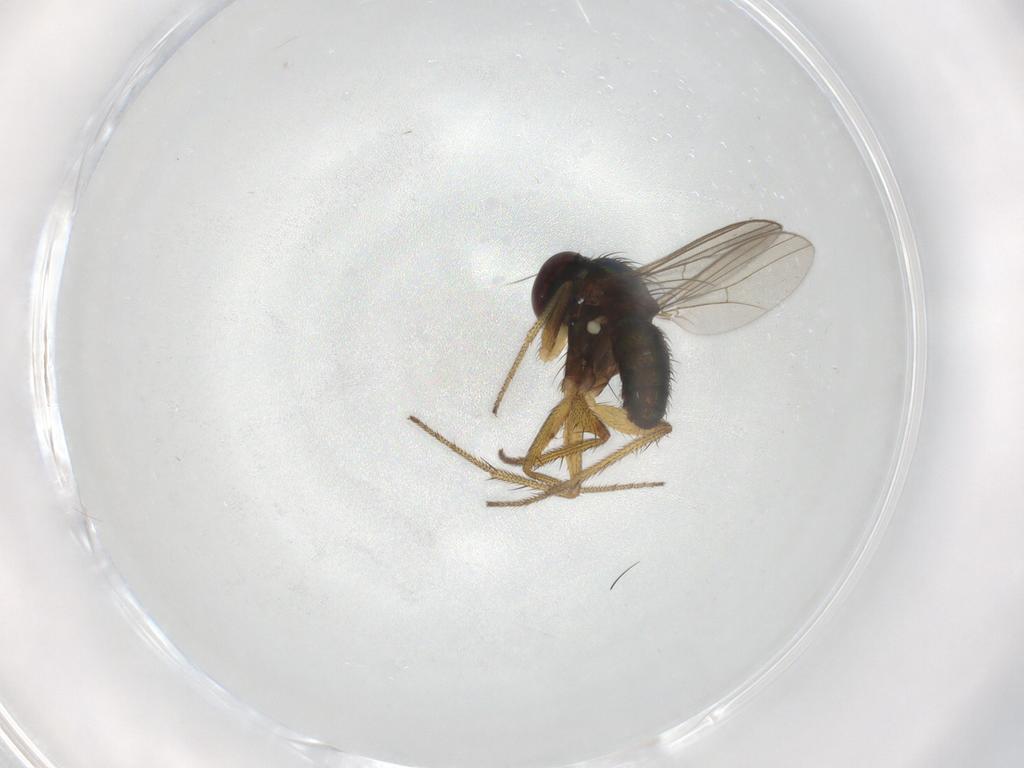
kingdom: Animalia
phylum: Arthropoda
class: Insecta
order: Diptera
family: Dolichopodidae
